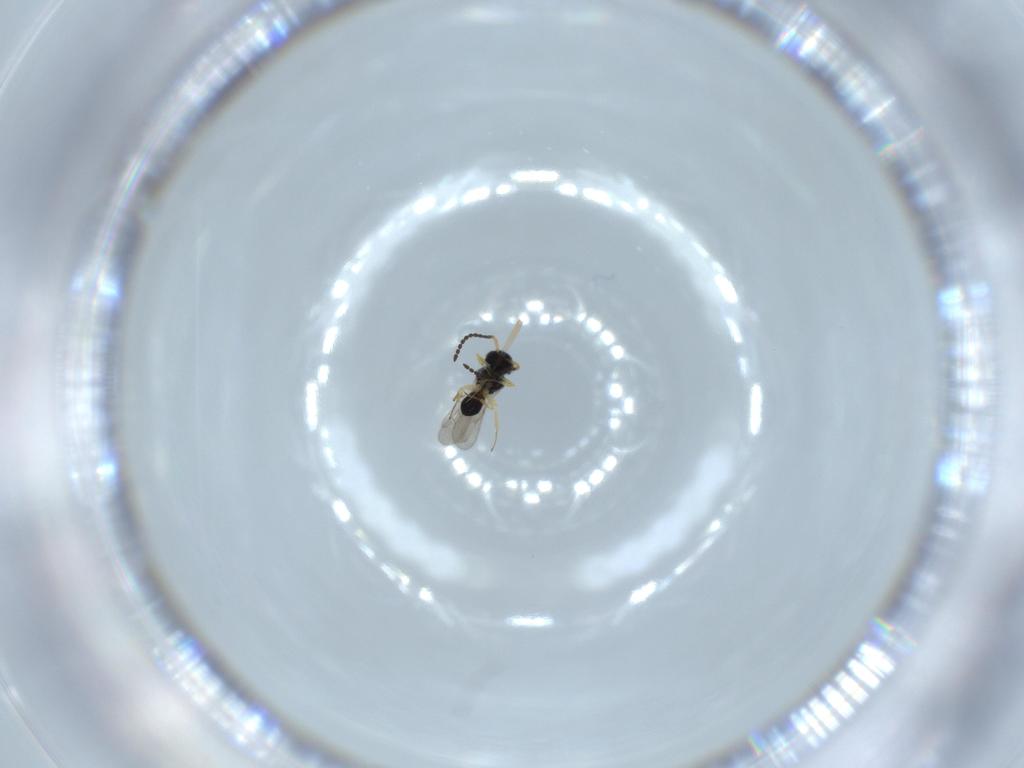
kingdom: Animalia
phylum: Arthropoda
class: Insecta
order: Hymenoptera
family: Scelionidae
